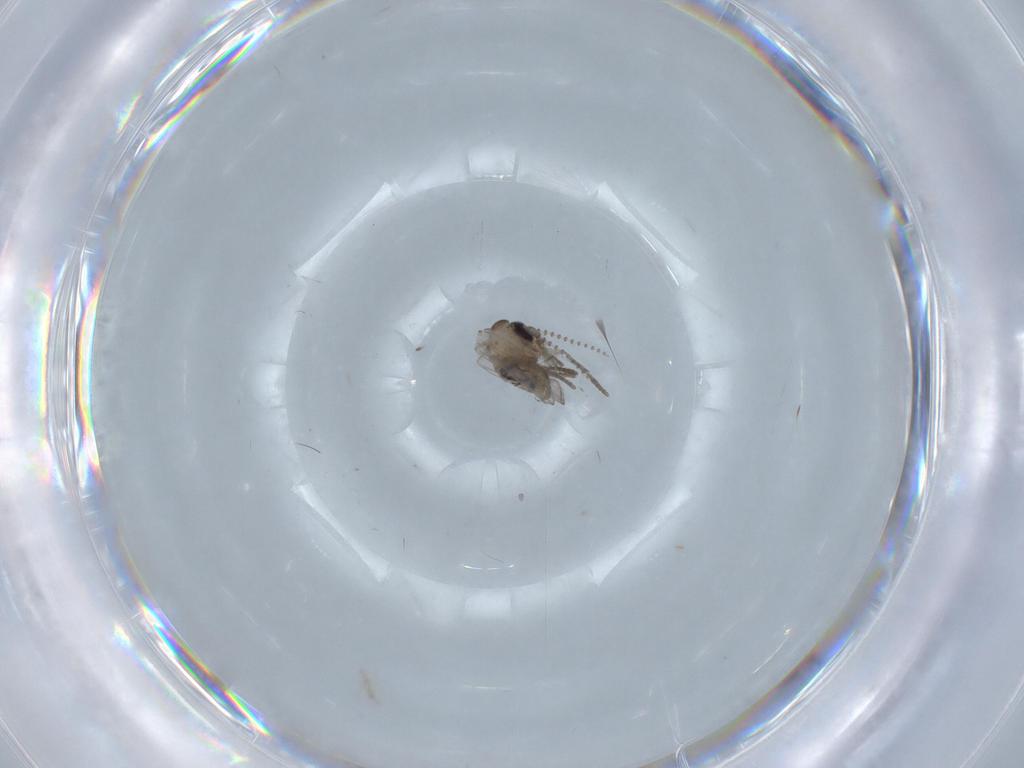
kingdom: Animalia
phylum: Arthropoda
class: Insecta
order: Diptera
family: Psychodidae
